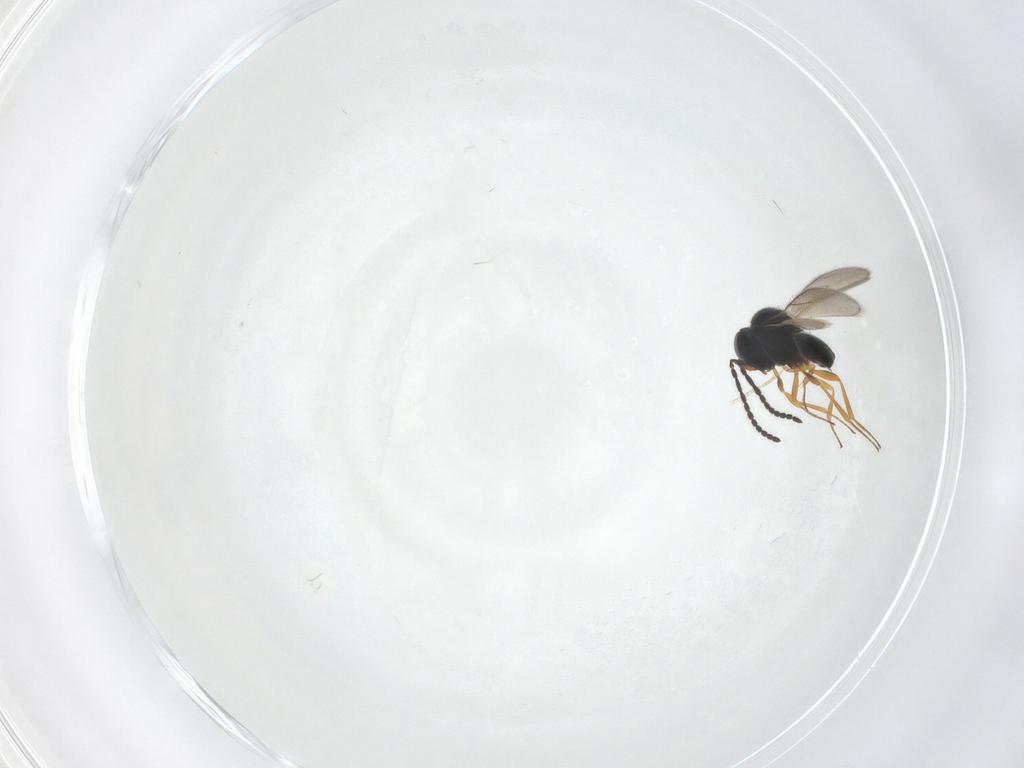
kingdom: Animalia
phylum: Arthropoda
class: Insecta
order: Hymenoptera
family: Scelionidae
